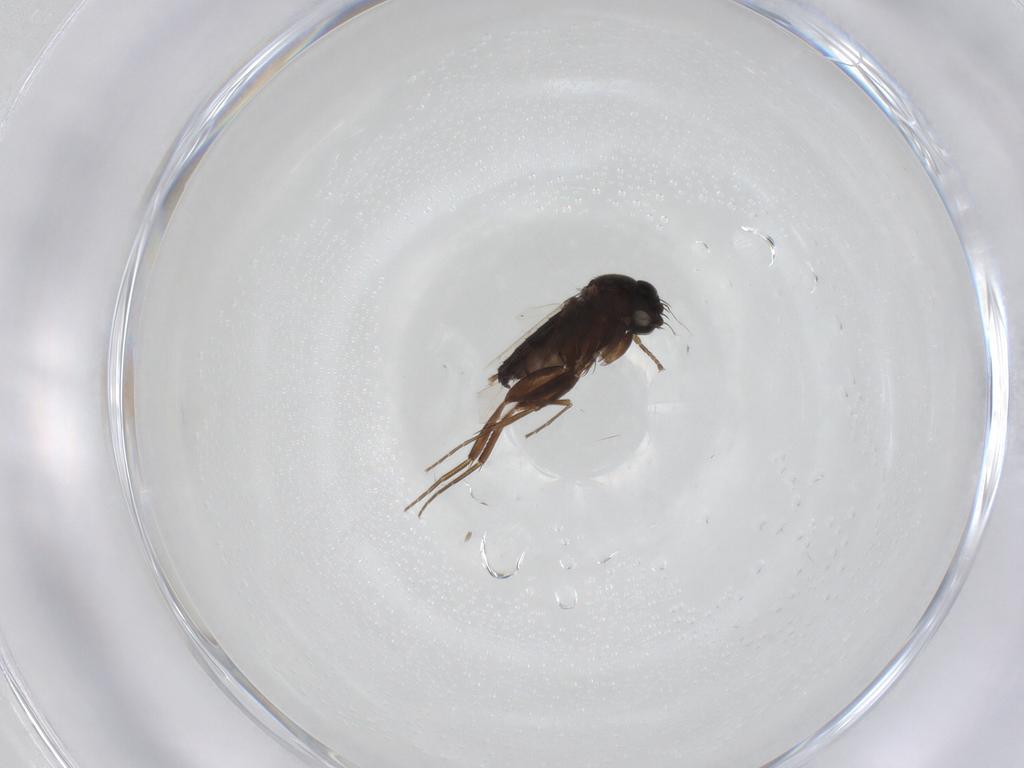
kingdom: Animalia
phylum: Arthropoda
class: Insecta
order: Diptera
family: Phoridae
